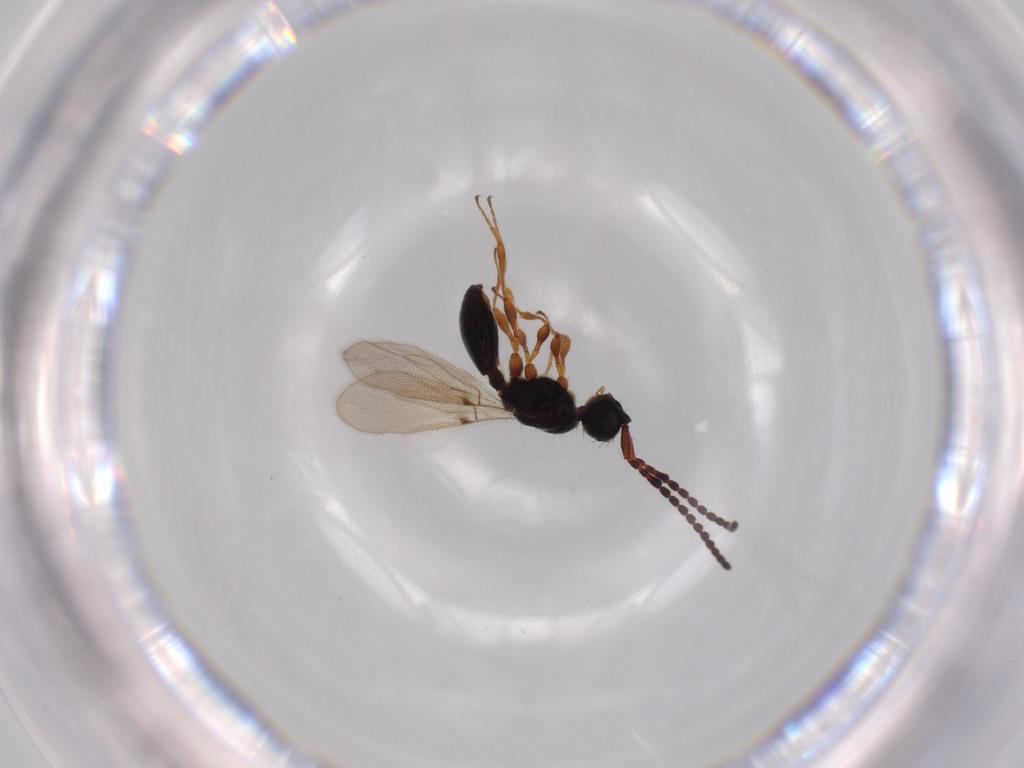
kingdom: Animalia
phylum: Arthropoda
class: Insecta
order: Hymenoptera
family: Diapriidae
